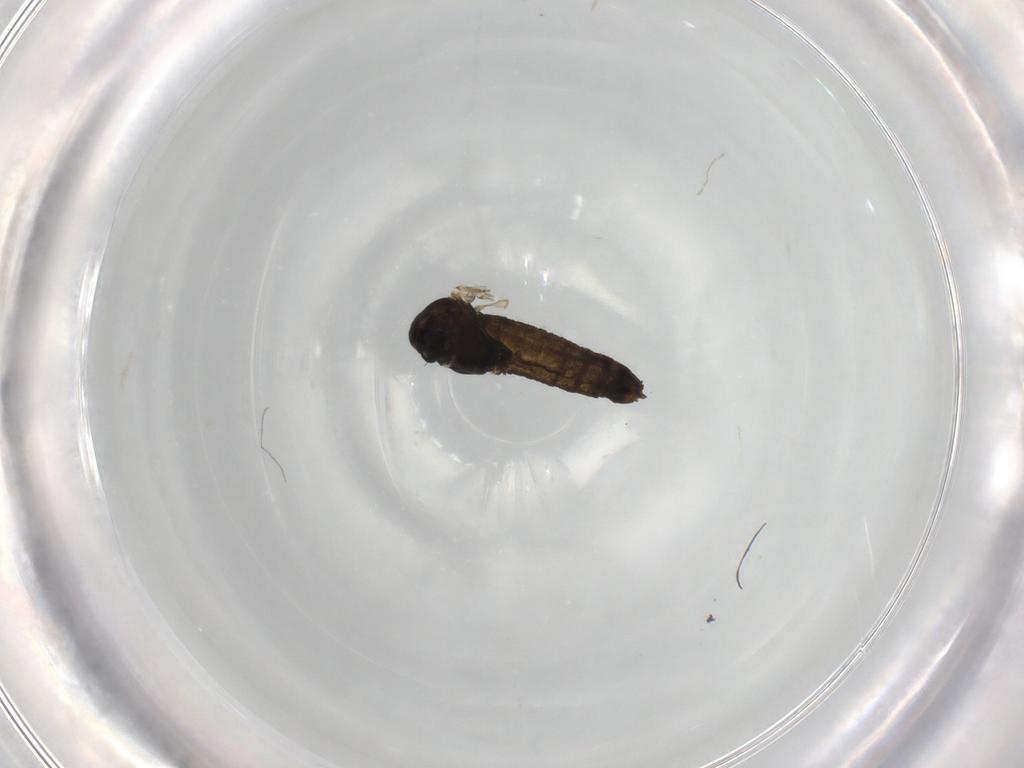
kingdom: Animalia
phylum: Arthropoda
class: Insecta
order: Diptera
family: Chironomidae
